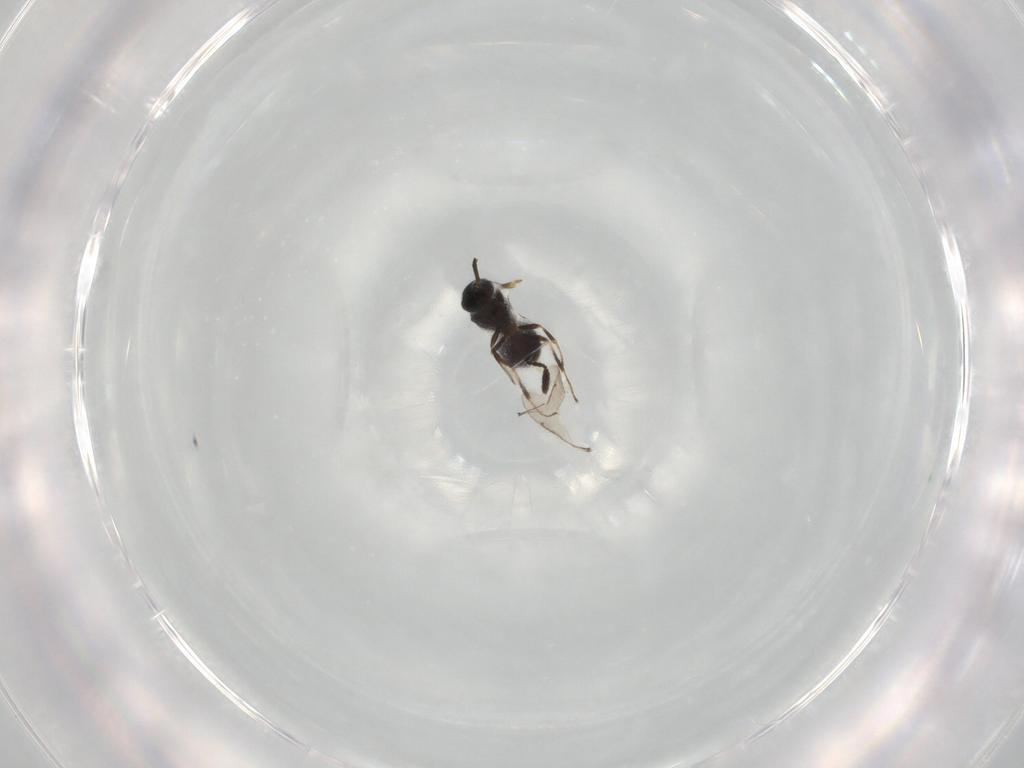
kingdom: Animalia
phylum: Arthropoda
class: Insecta
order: Hymenoptera
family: Scelionidae
